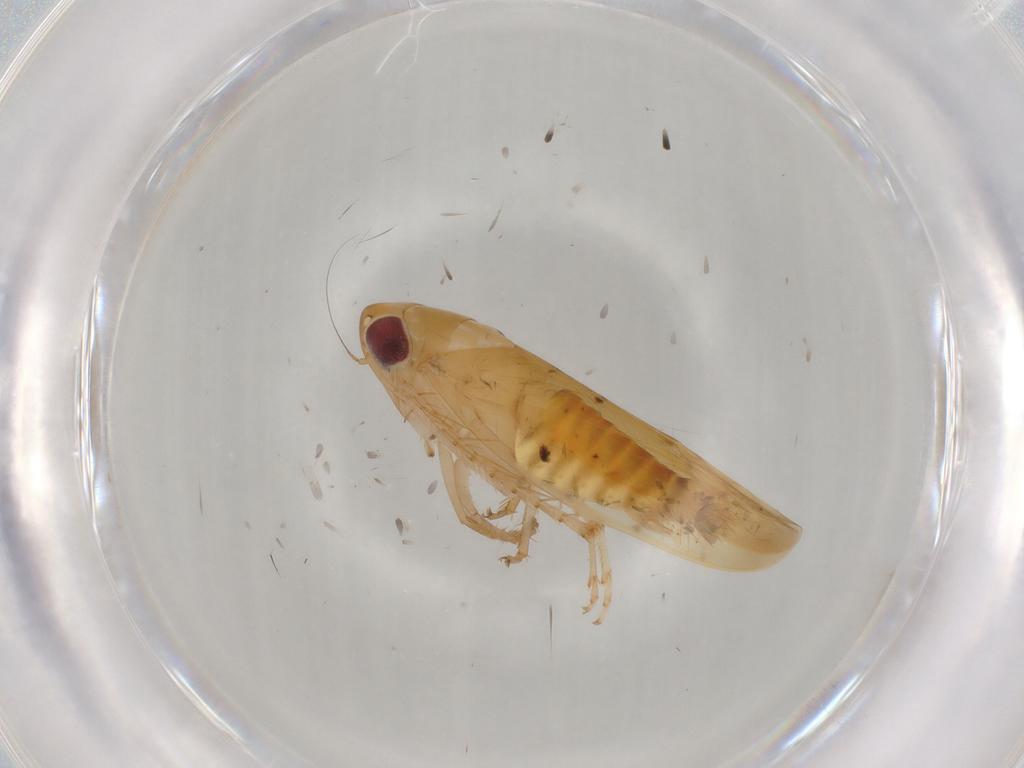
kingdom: Animalia
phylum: Arthropoda
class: Insecta
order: Hemiptera
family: Cicadellidae
